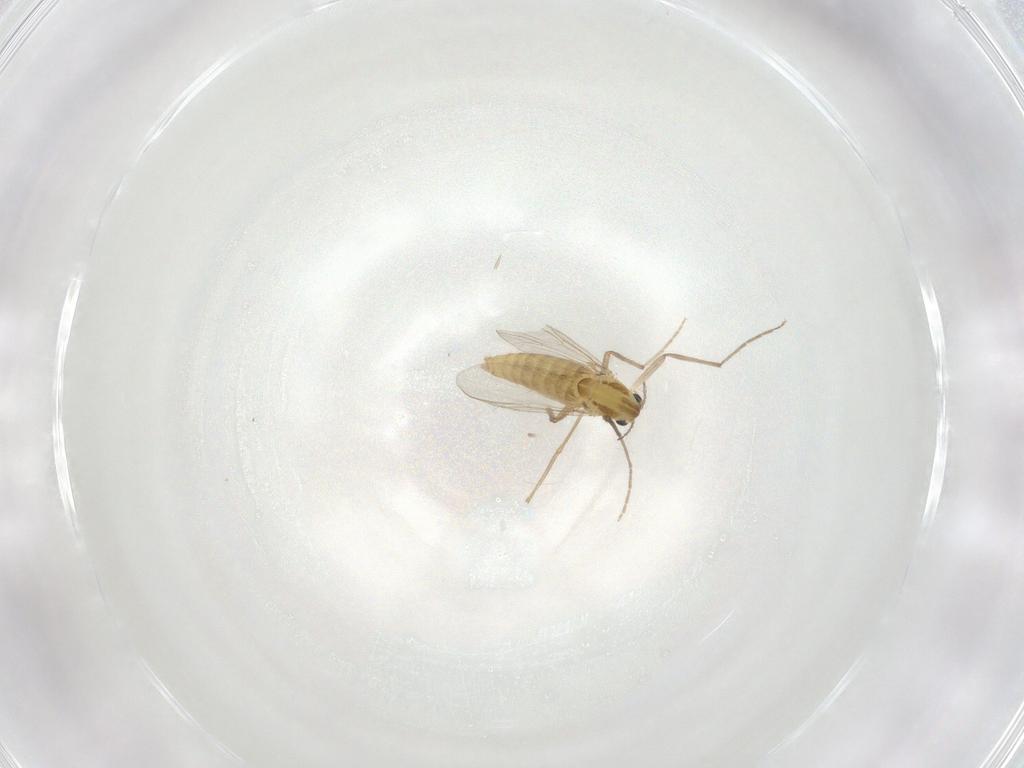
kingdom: Animalia
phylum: Arthropoda
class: Insecta
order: Diptera
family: Chironomidae
